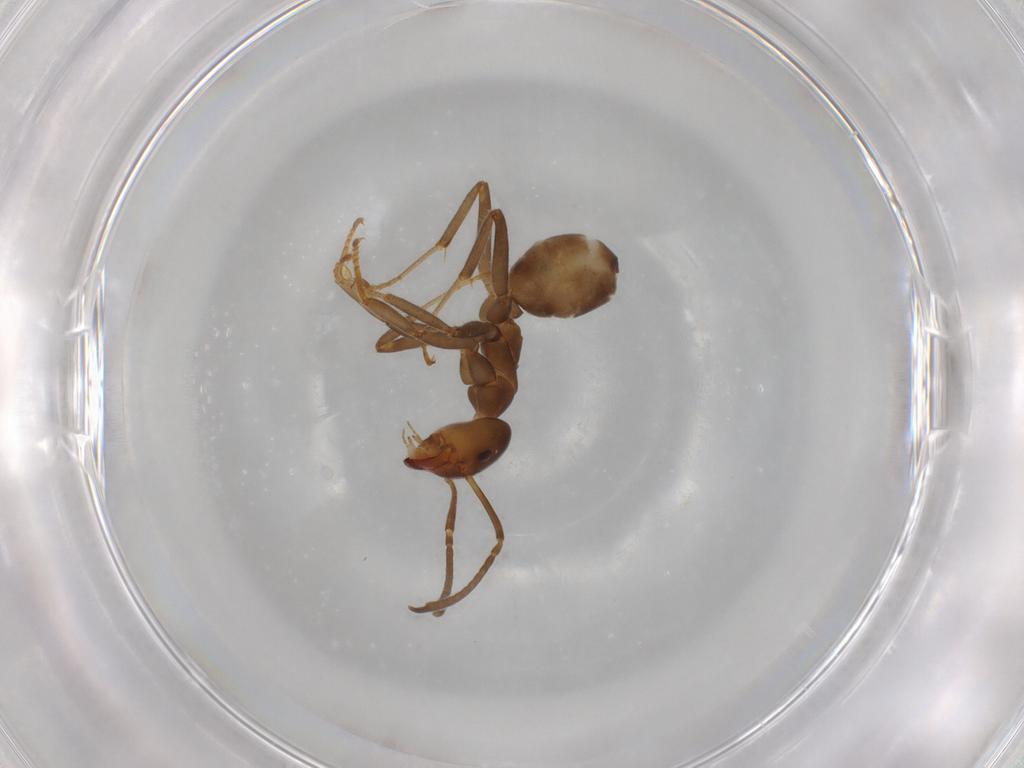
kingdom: Animalia
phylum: Arthropoda
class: Insecta
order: Hymenoptera
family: Formicidae
